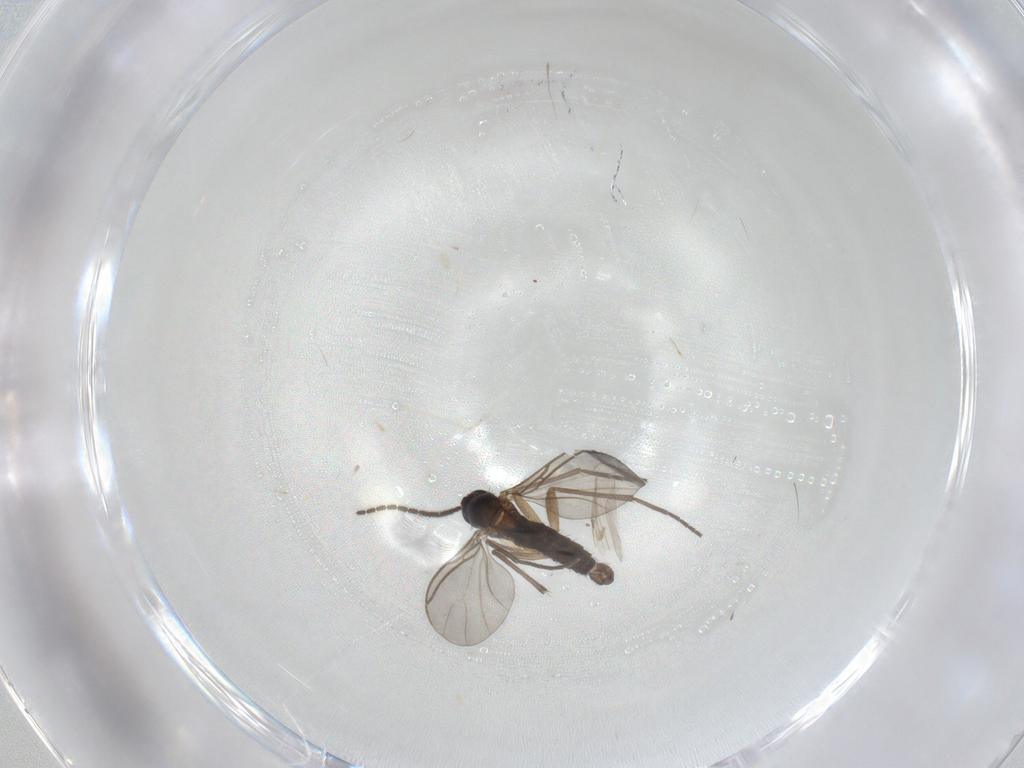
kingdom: Animalia
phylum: Arthropoda
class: Insecta
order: Diptera
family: Sciaridae
